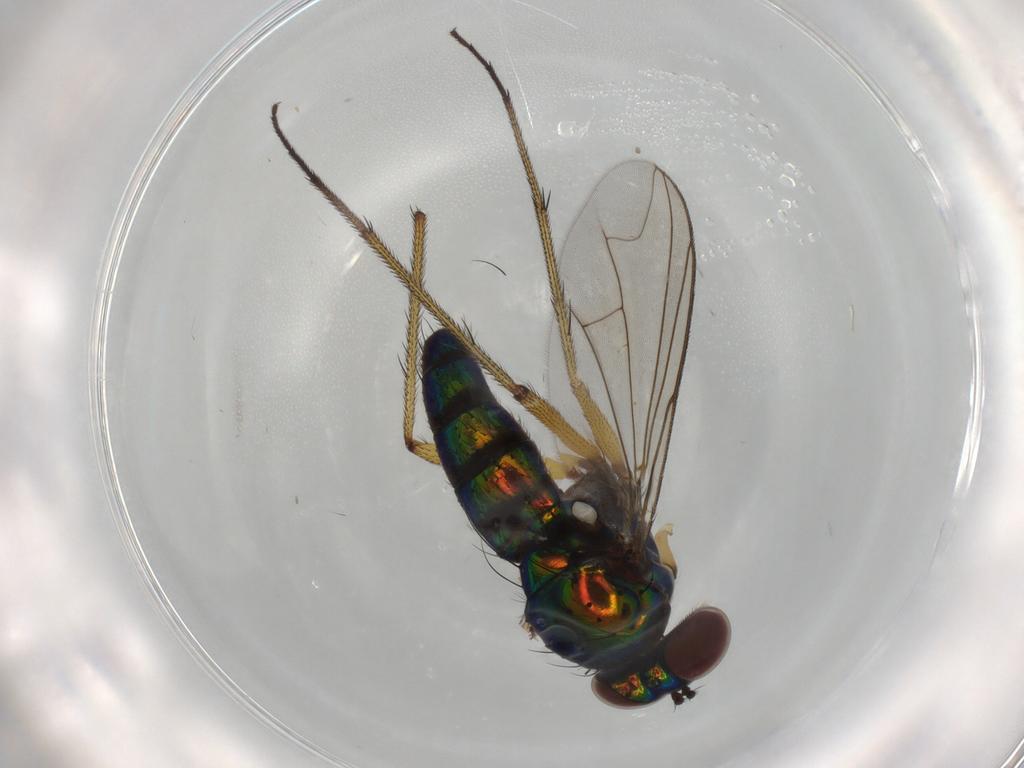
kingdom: Animalia
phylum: Arthropoda
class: Insecta
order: Diptera
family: Dolichopodidae
